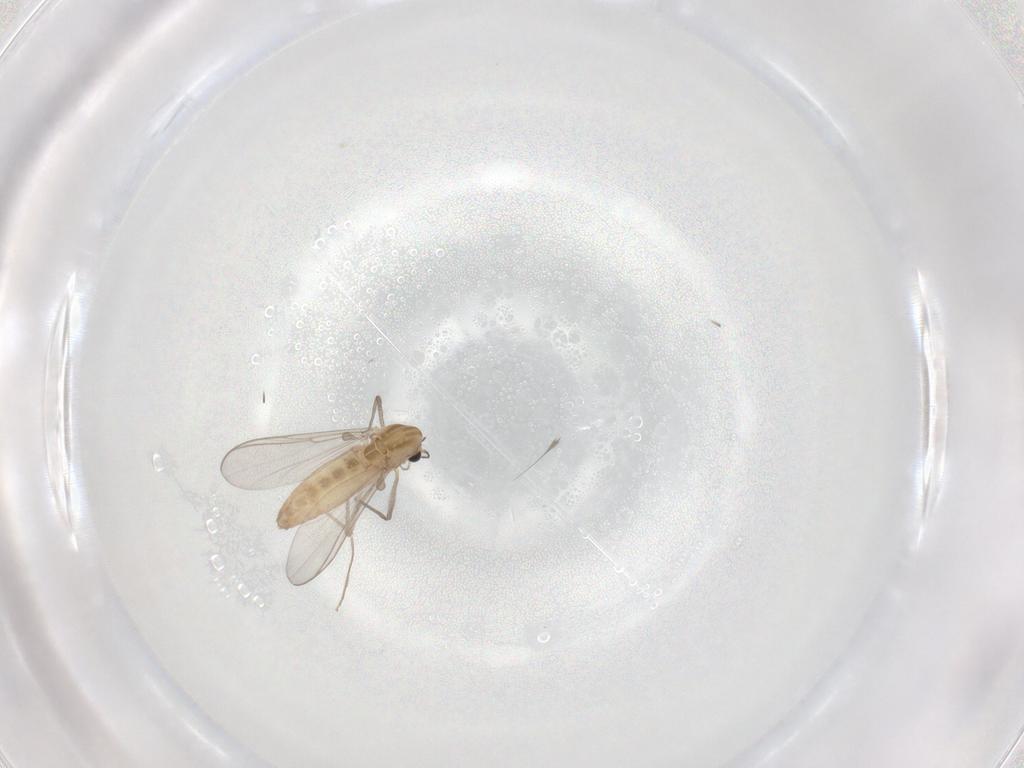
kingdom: Animalia
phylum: Arthropoda
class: Insecta
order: Diptera
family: Chironomidae
